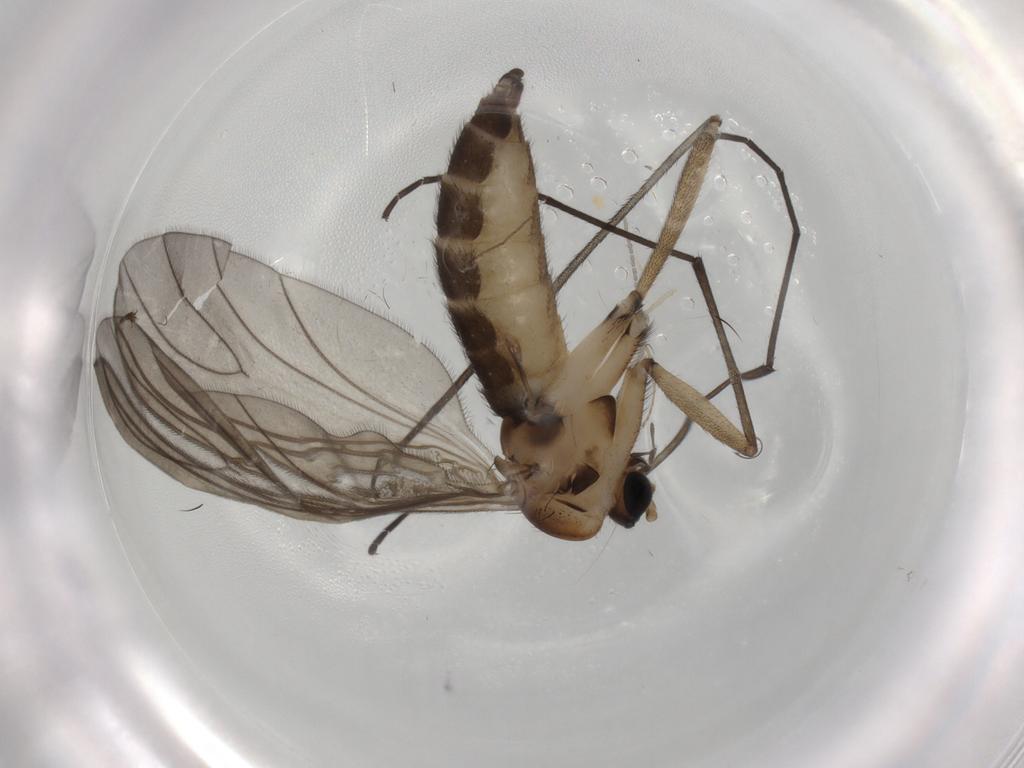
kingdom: Animalia
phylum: Arthropoda
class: Insecta
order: Diptera
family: Sciaridae
